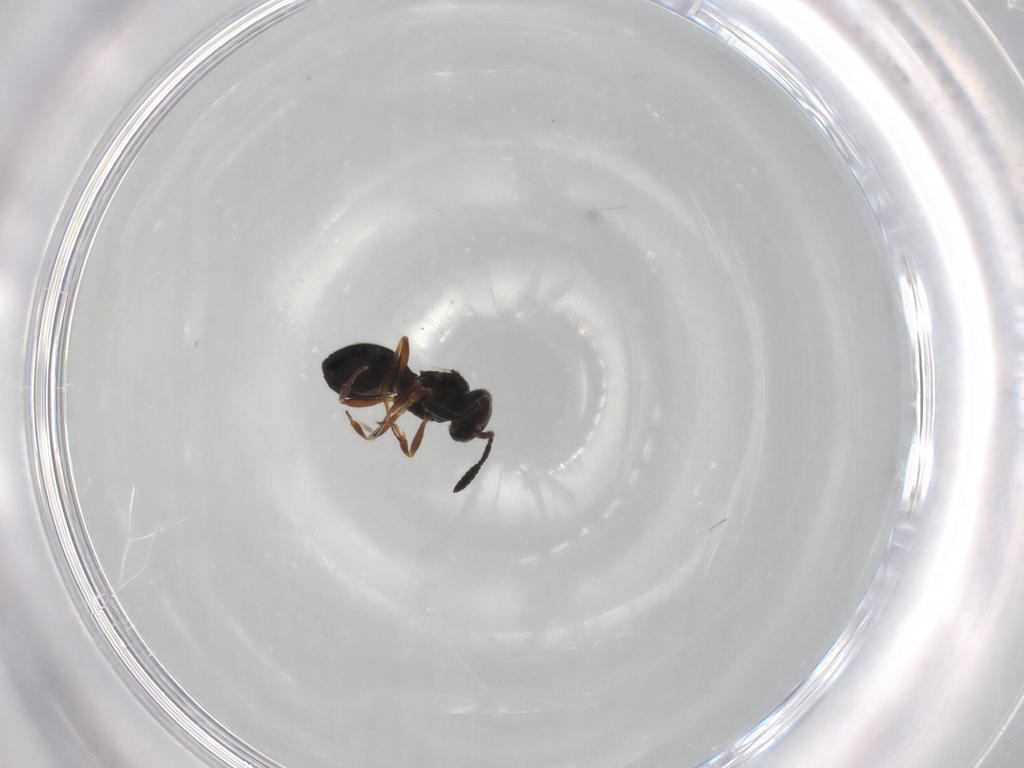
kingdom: Animalia
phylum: Arthropoda
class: Insecta
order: Hymenoptera
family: Scelionidae
